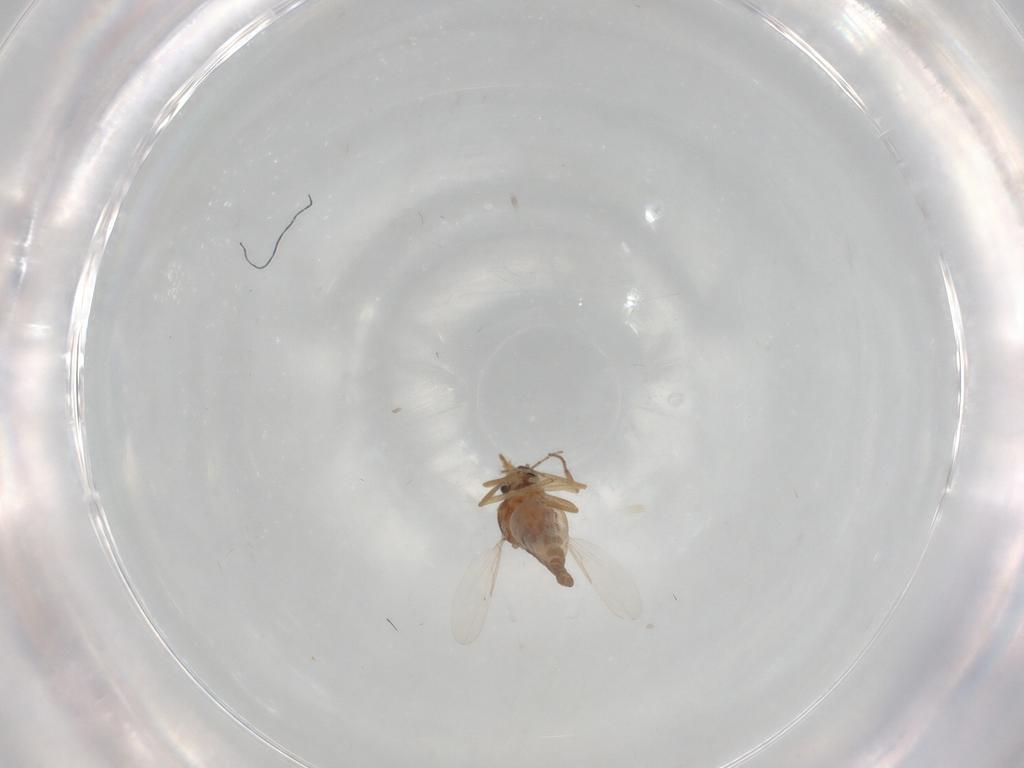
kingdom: Animalia
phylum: Arthropoda
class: Insecta
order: Diptera
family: Ceratopogonidae
